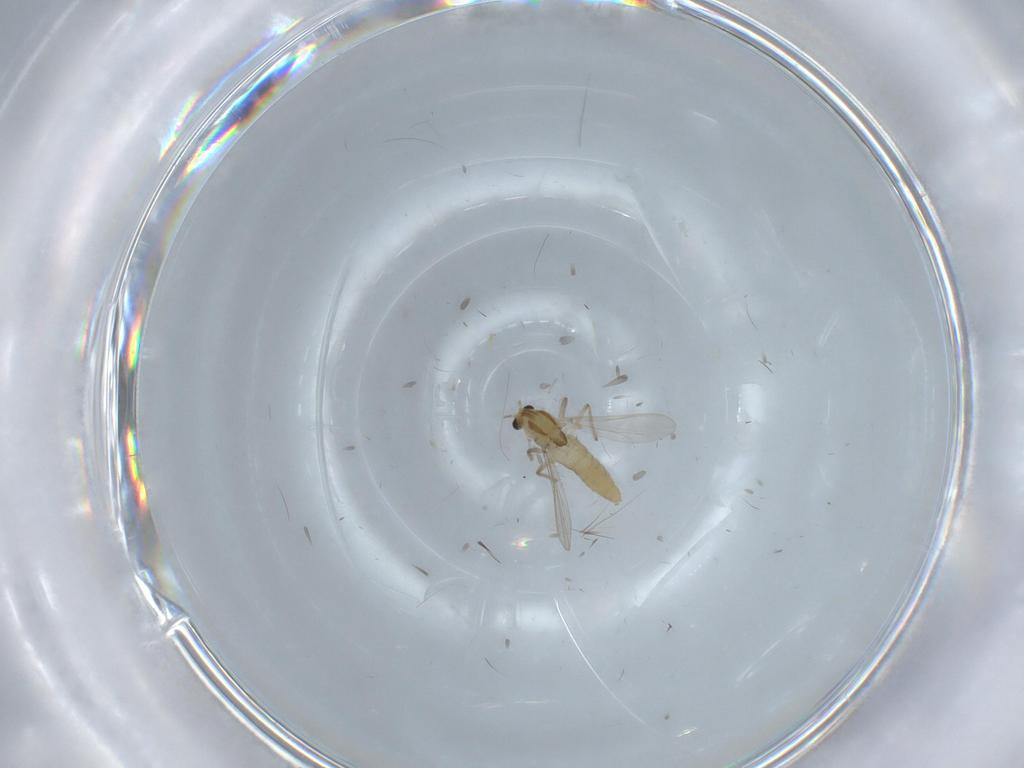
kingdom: Animalia
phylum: Arthropoda
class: Insecta
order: Diptera
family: Chironomidae
